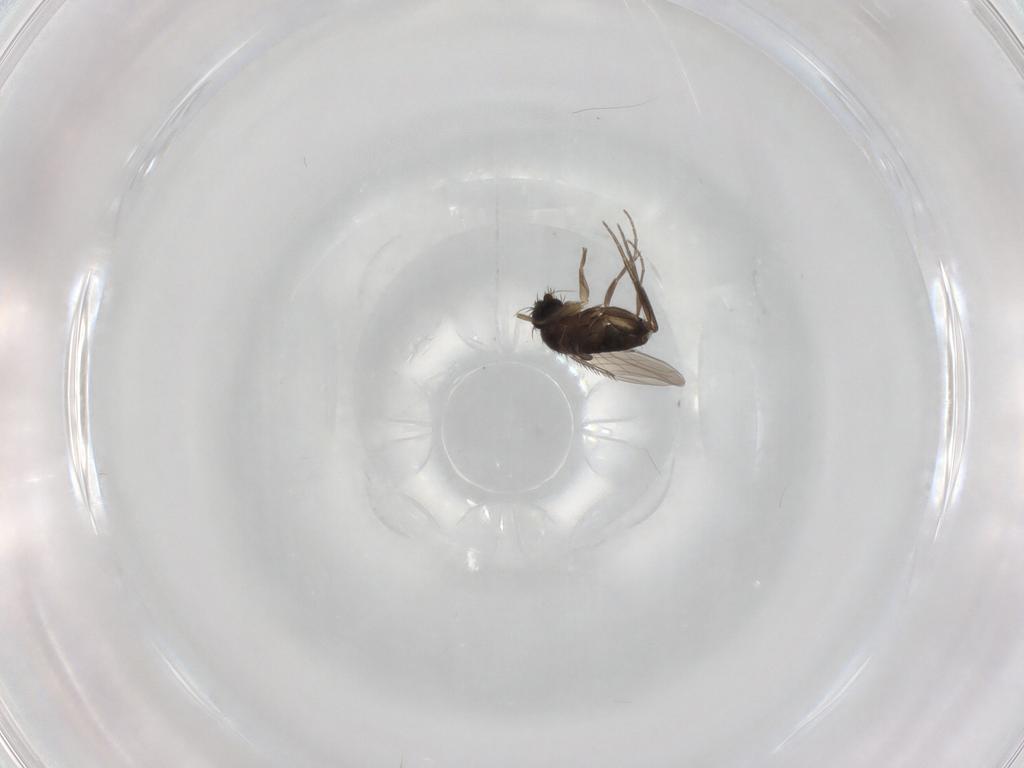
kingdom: Animalia
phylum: Arthropoda
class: Insecta
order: Diptera
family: Phoridae
